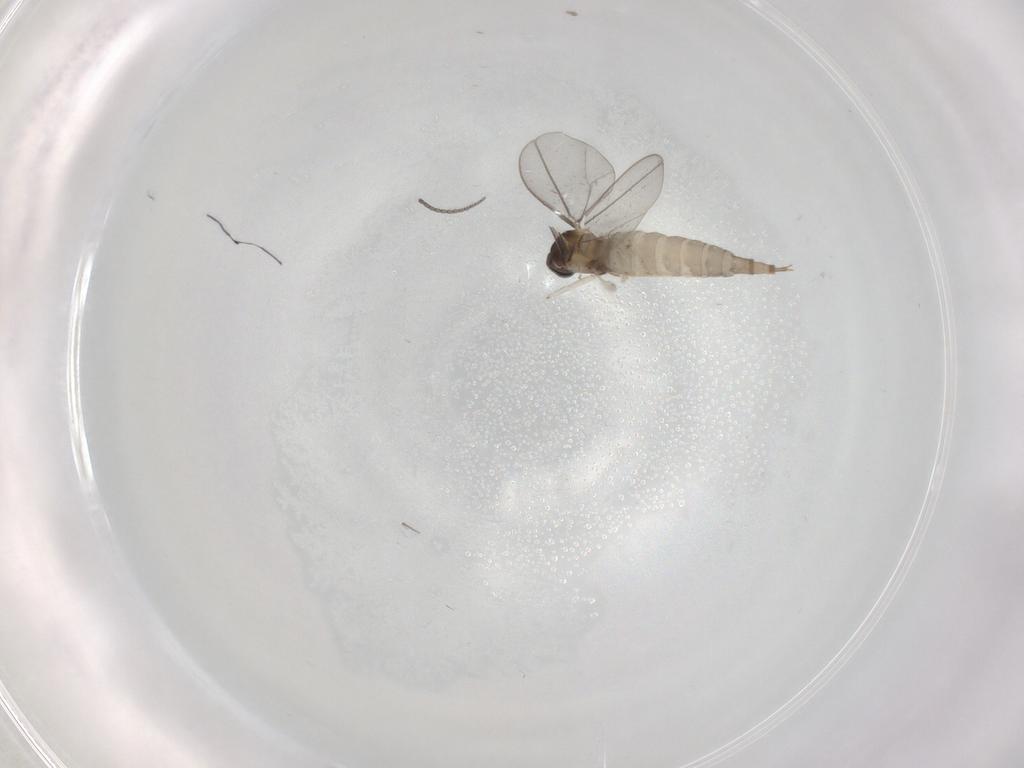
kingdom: Animalia
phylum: Arthropoda
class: Insecta
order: Diptera
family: Cecidomyiidae
